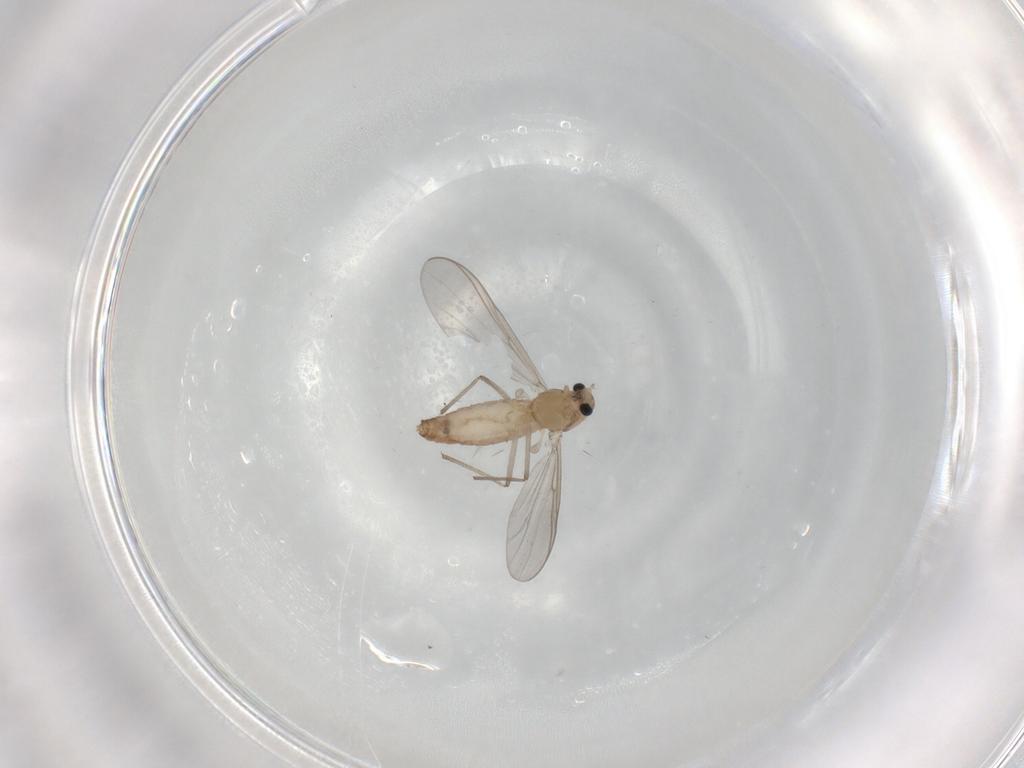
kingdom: Animalia
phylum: Arthropoda
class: Insecta
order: Diptera
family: Chironomidae
